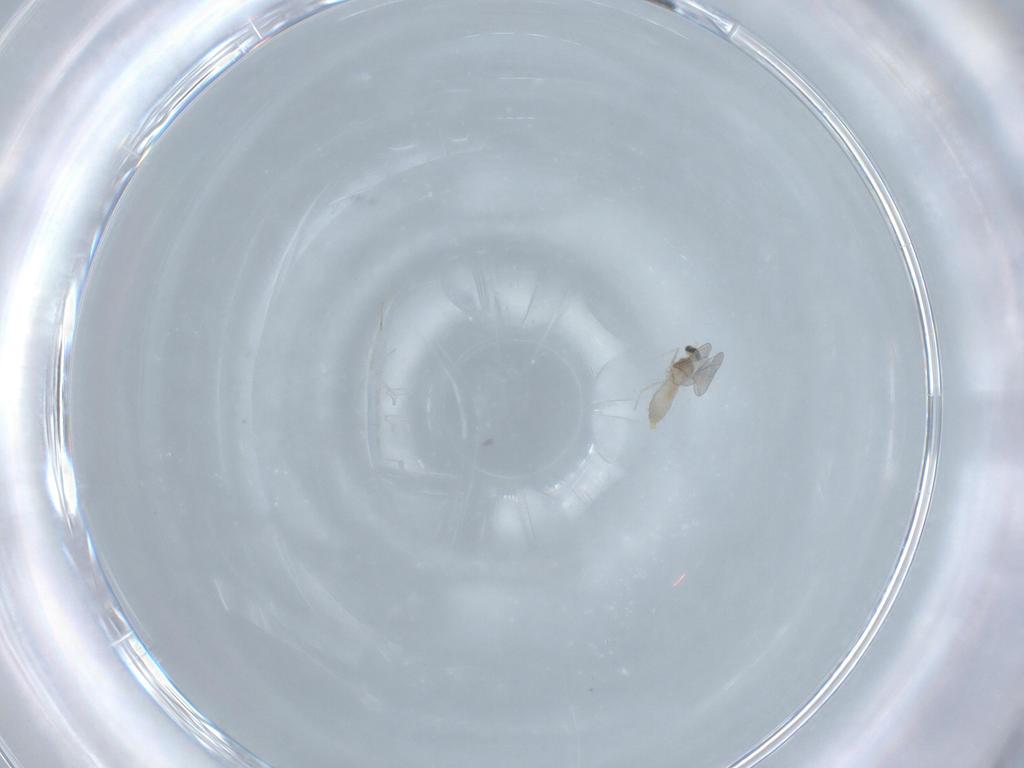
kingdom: Animalia
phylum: Arthropoda
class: Insecta
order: Diptera
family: Cecidomyiidae
